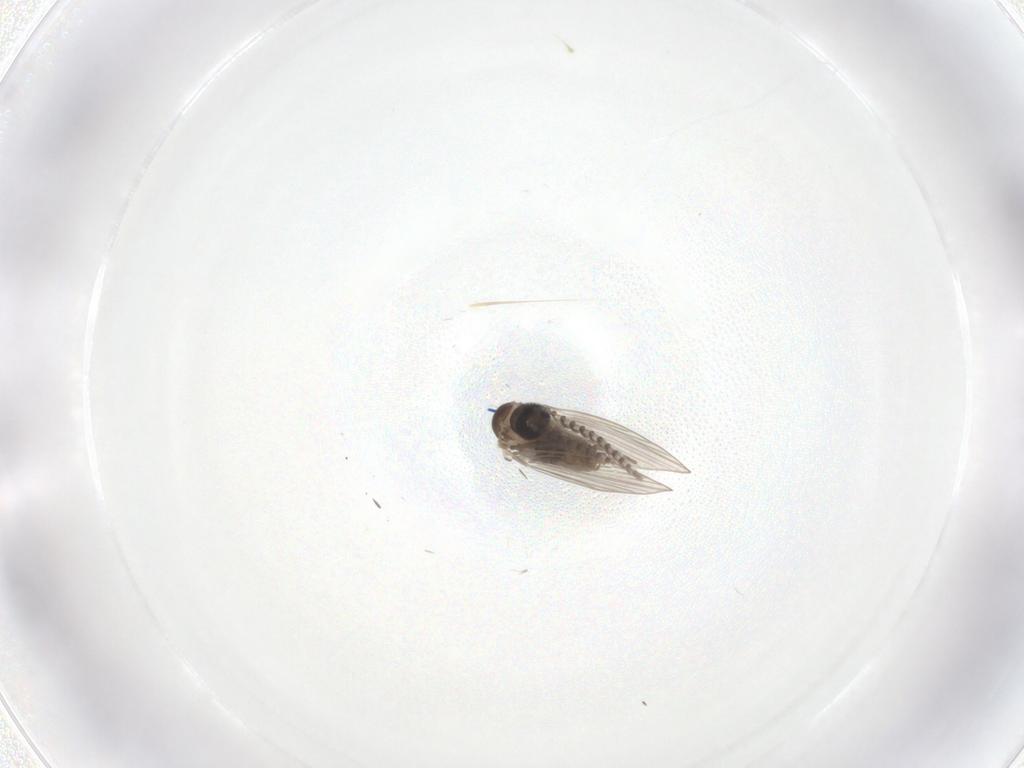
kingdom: Animalia
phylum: Arthropoda
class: Insecta
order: Diptera
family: Psychodidae
